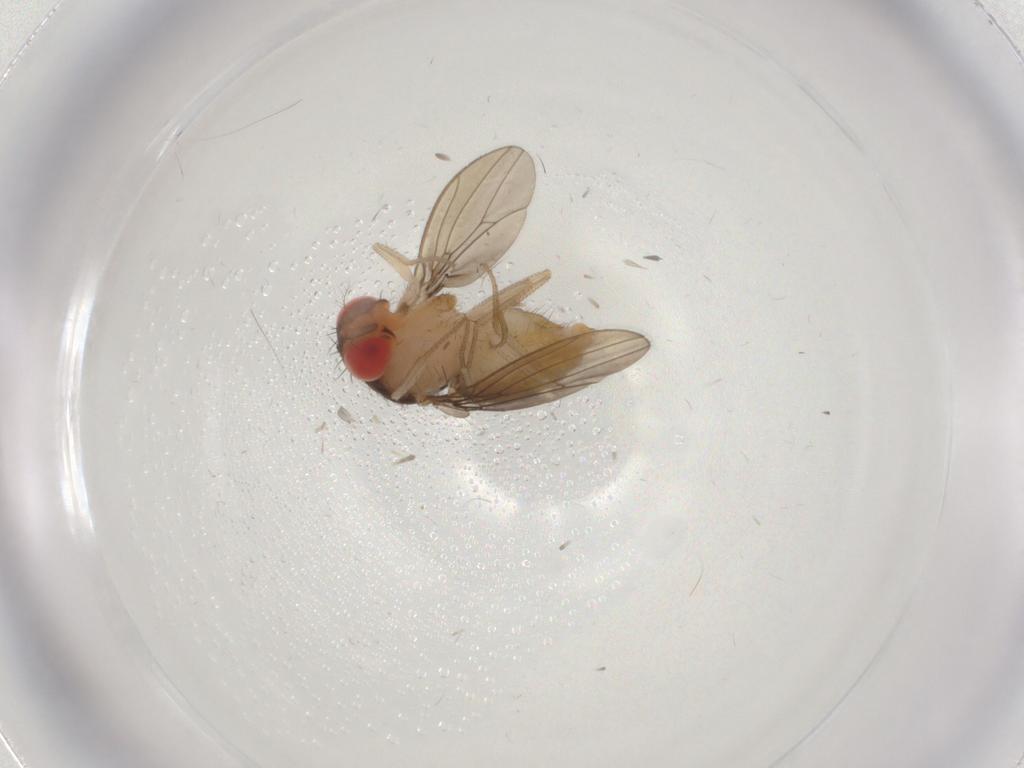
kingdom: Animalia
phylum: Arthropoda
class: Insecta
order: Diptera
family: Drosophilidae
